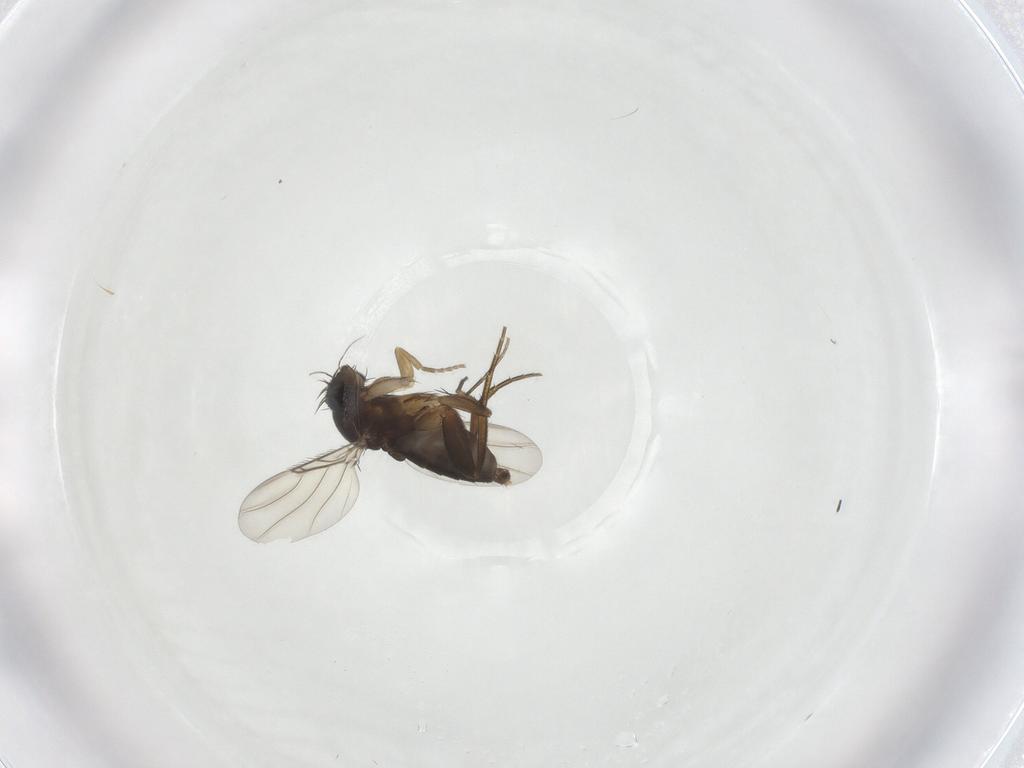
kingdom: Animalia
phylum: Arthropoda
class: Insecta
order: Diptera
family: Phoridae
